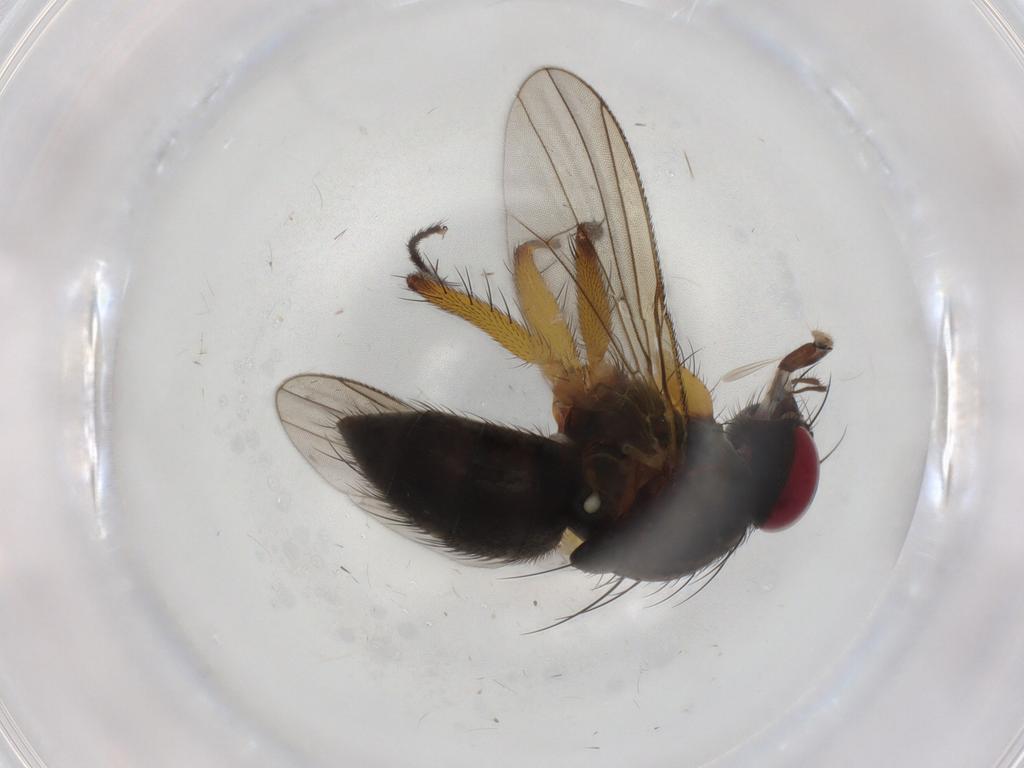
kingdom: Animalia
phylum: Arthropoda
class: Insecta
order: Diptera
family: Muscidae
